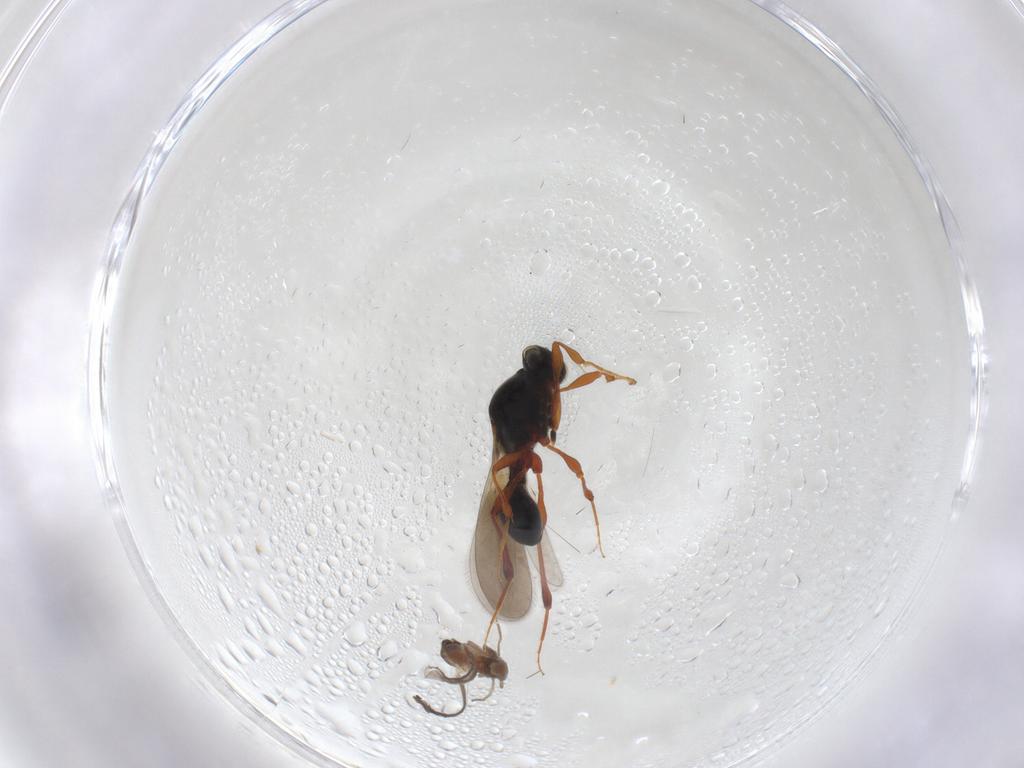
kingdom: Animalia
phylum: Arthropoda
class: Insecta
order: Hymenoptera
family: Platygastridae
